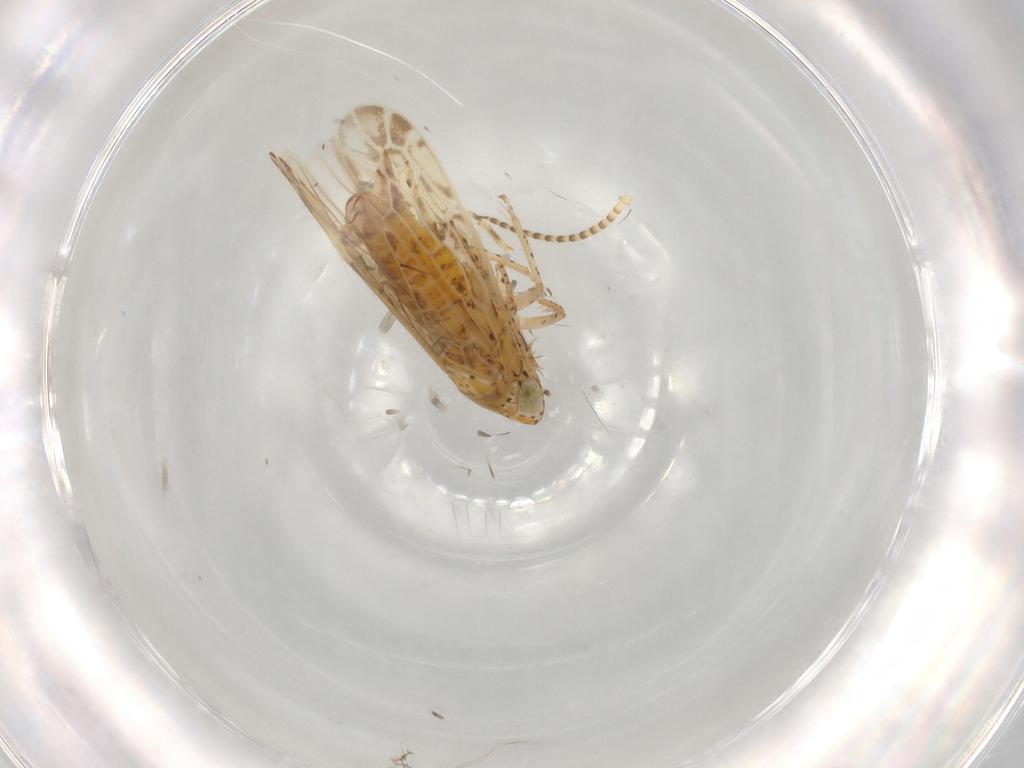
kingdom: Animalia
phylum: Arthropoda
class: Insecta
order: Hemiptera
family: Cicadellidae
